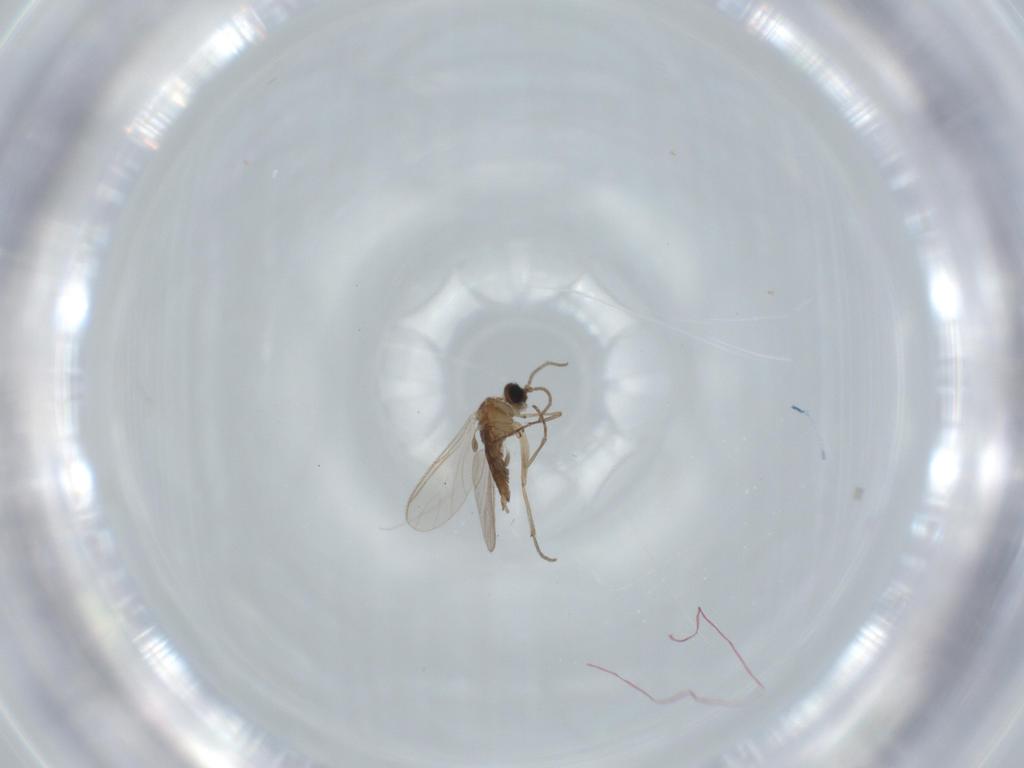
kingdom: Animalia
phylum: Arthropoda
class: Insecta
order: Diptera
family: Sciaridae
